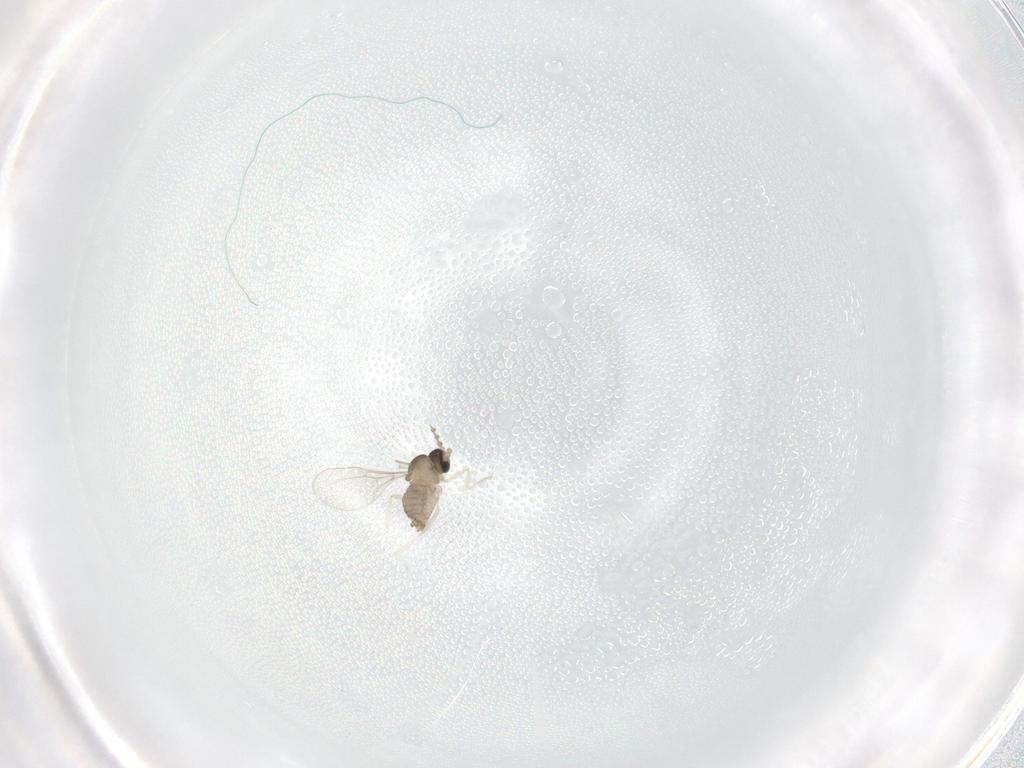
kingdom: Animalia
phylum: Arthropoda
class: Insecta
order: Diptera
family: Cecidomyiidae
